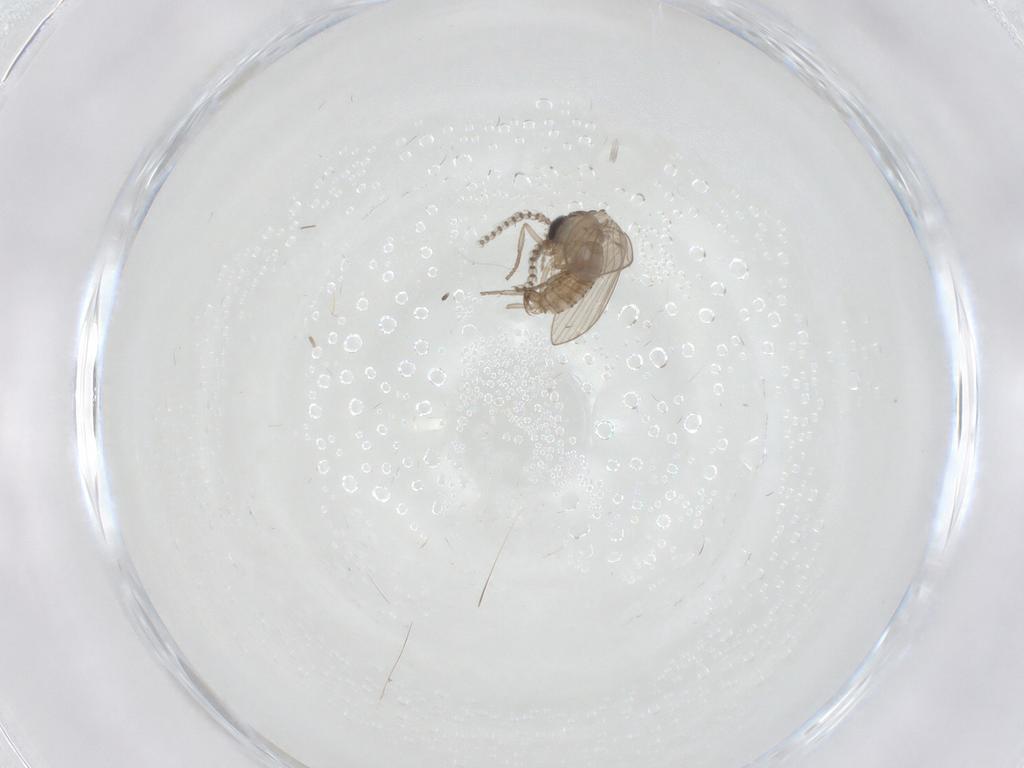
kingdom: Animalia
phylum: Arthropoda
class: Insecta
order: Diptera
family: Psychodidae
